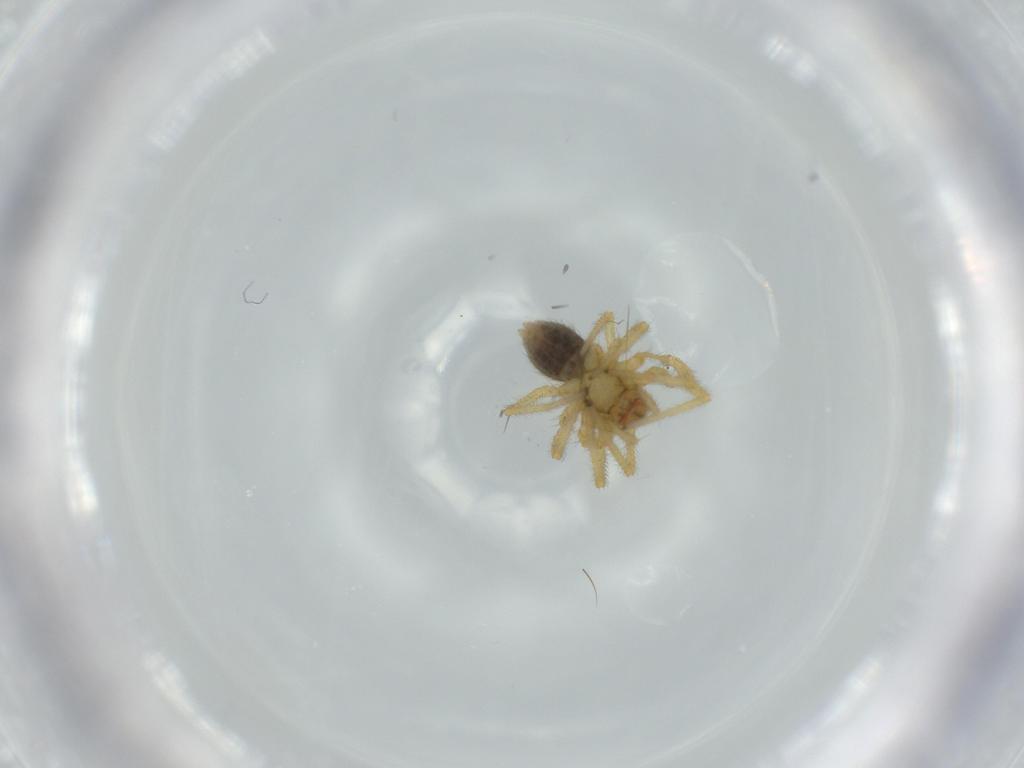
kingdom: Animalia
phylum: Arthropoda
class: Arachnida
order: Araneae
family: Linyphiidae
